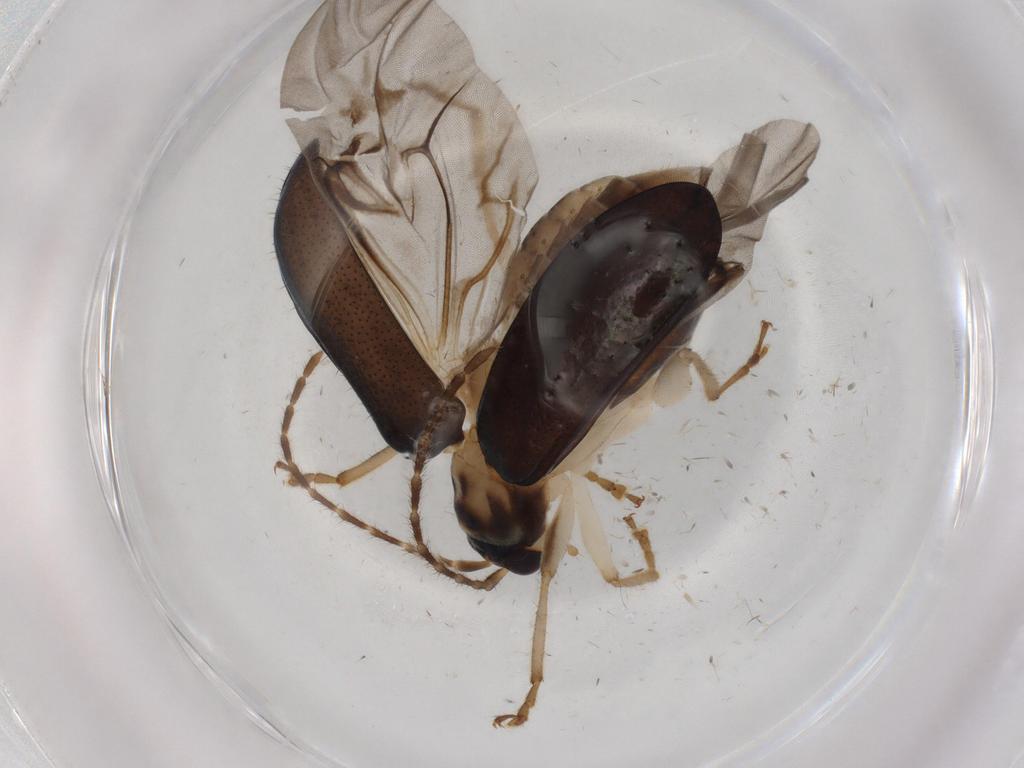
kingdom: Animalia
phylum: Arthropoda
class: Insecta
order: Coleoptera
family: Chrysomelidae
